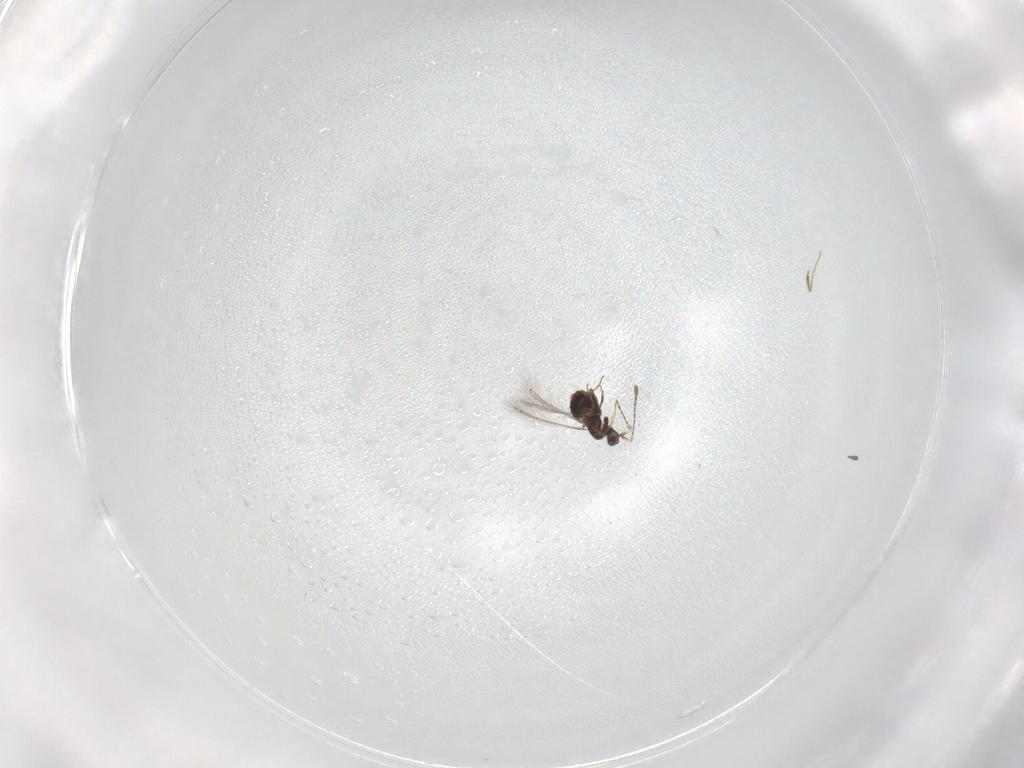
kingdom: Animalia
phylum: Arthropoda
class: Insecta
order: Hymenoptera
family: Mymaridae
